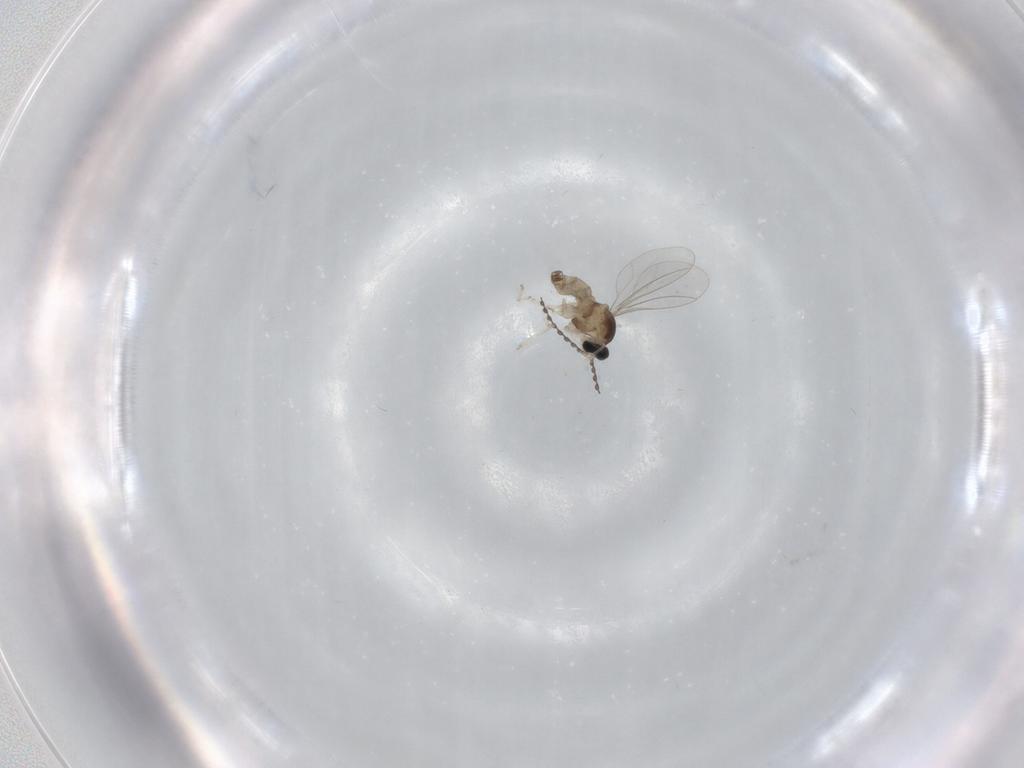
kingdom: Animalia
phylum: Arthropoda
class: Insecta
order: Diptera
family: Cecidomyiidae
